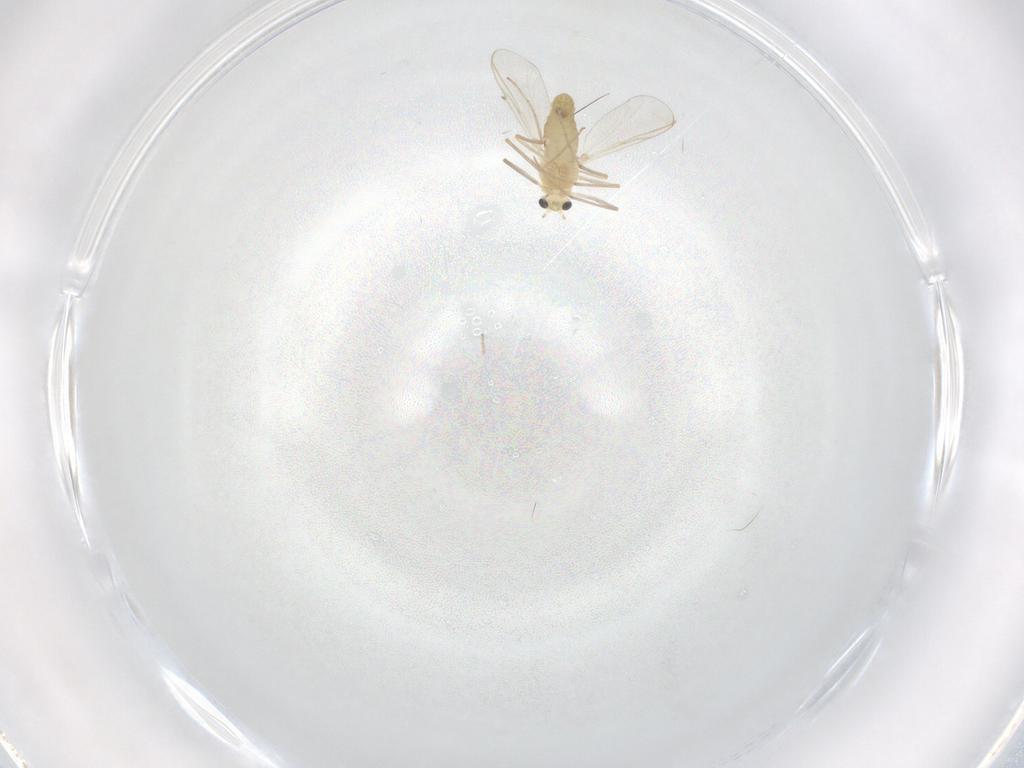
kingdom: Animalia
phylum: Arthropoda
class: Insecta
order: Diptera
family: Chironomidae
